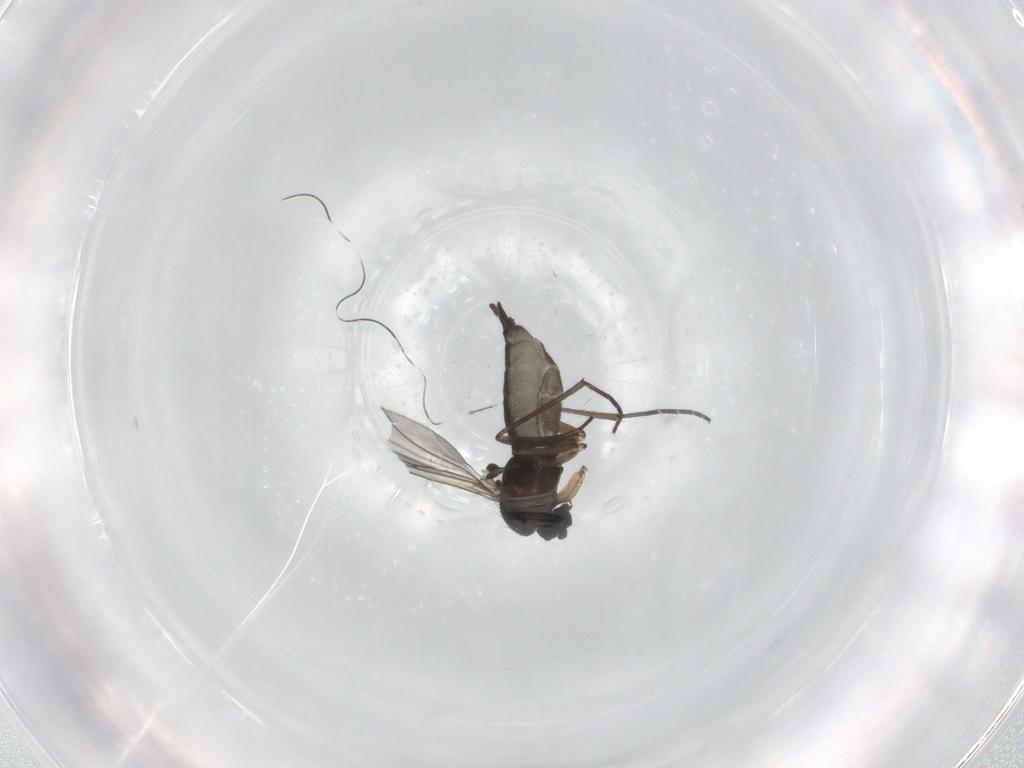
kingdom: Animalia
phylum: Arthropoda
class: Insecta
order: Diptera
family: Sciaridae
